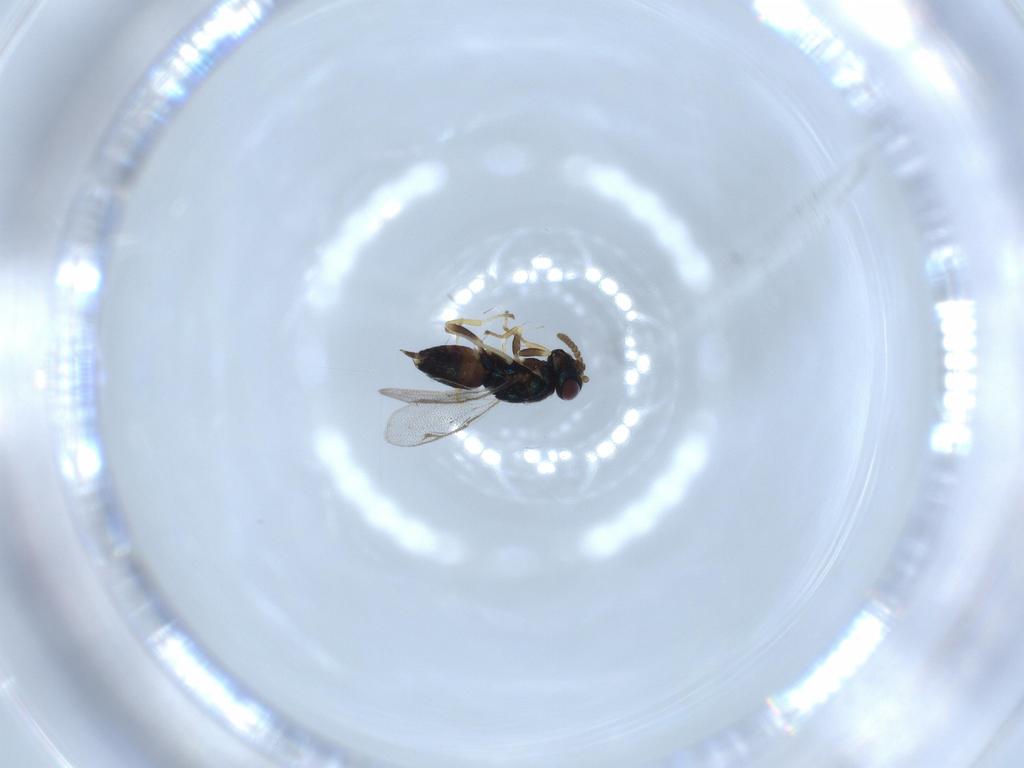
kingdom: Animalia
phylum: Arthropoda
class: Insecta
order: Hymenoptera
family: Pirenidae
